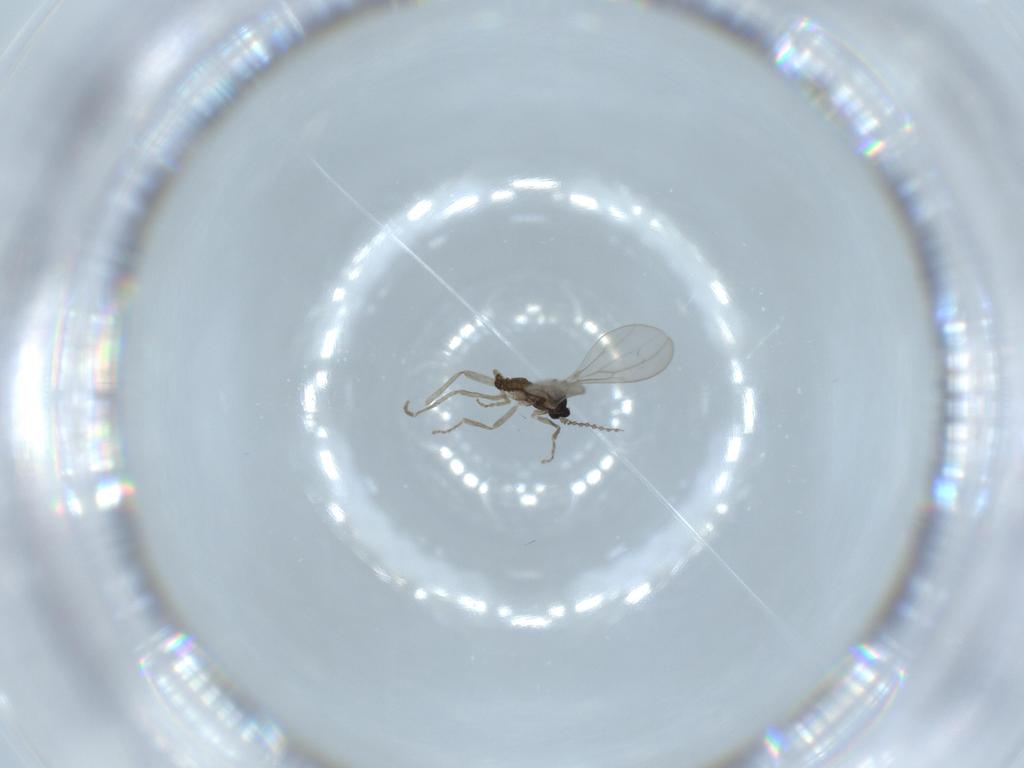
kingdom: Animalia
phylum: Arthropoda
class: Insecta
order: Diptera
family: Cecidomyiidae
